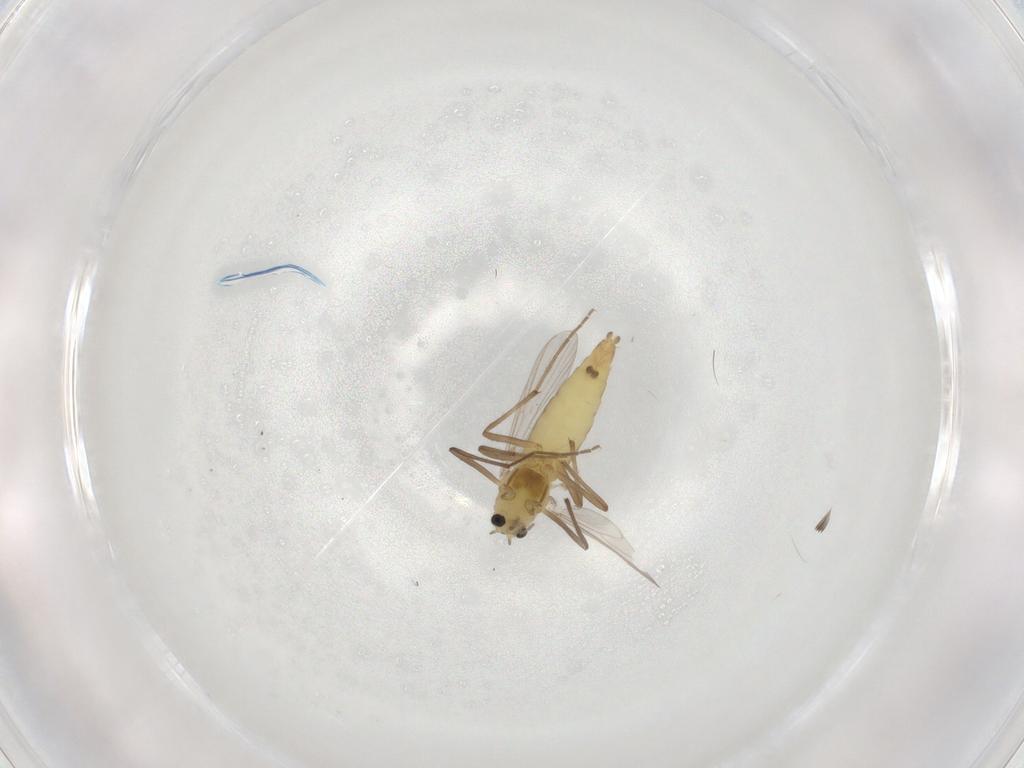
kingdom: Animalia
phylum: Arthropoda
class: Insecta
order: Diptera
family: Chironomidae
